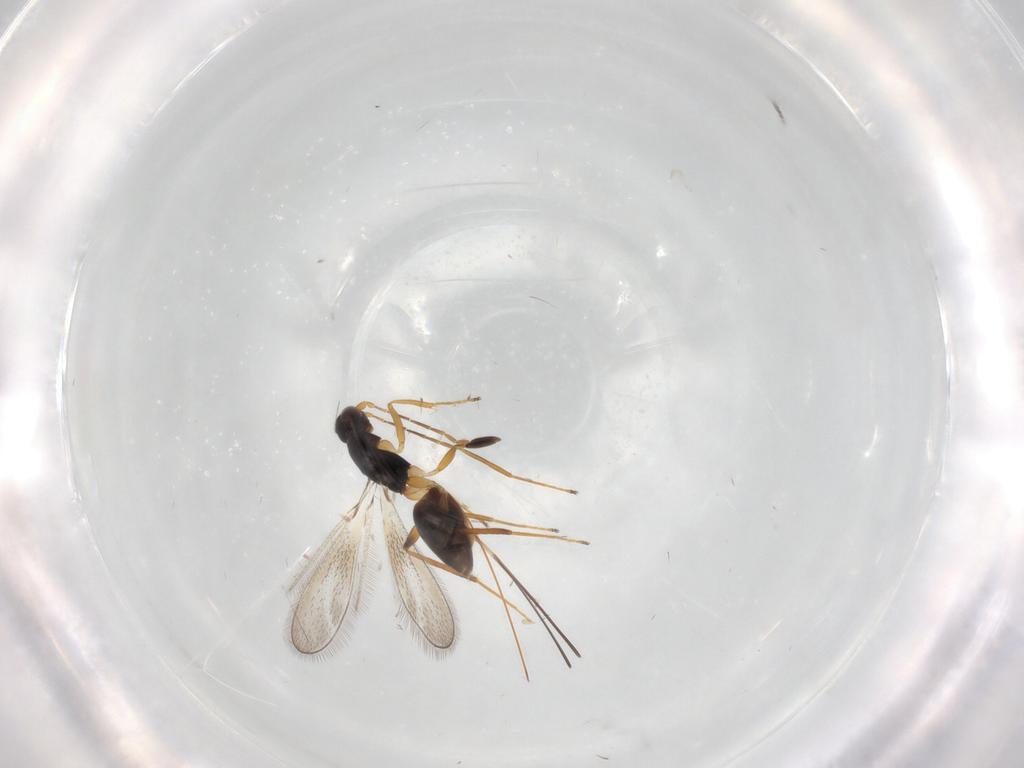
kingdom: Animalia
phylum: Arthropoda
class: Insecta
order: Hymenoptera
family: Mymaridae
